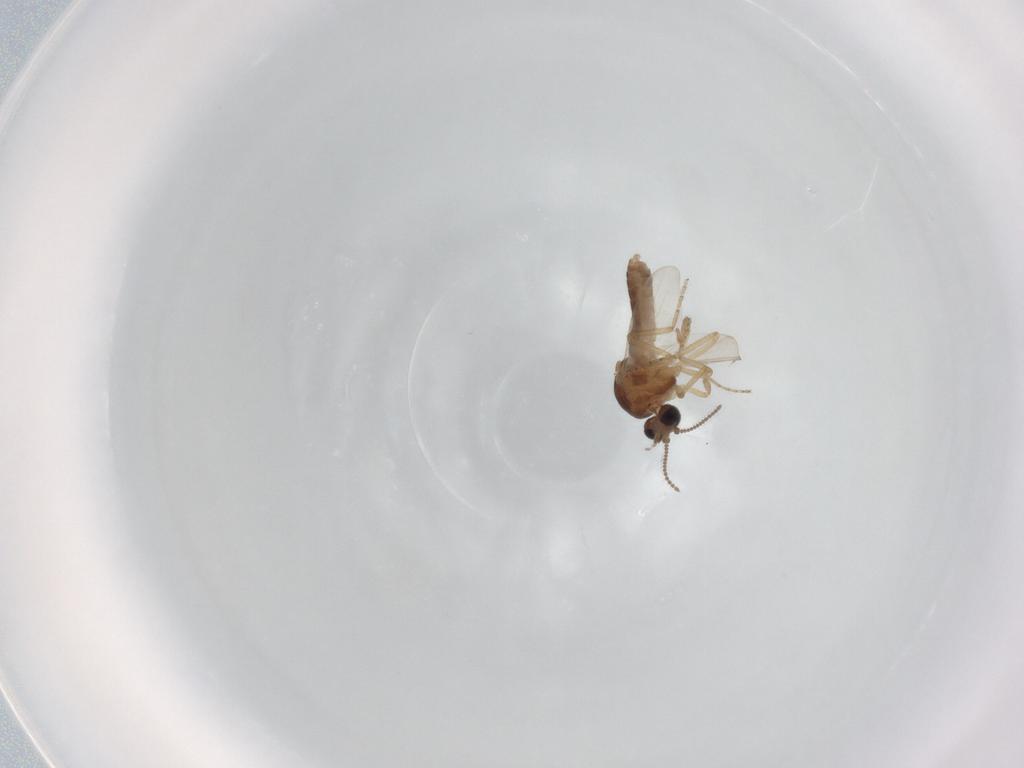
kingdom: Animalia
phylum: Arthropoda
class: Insecta
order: Diptera
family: Ceratopogonidae
